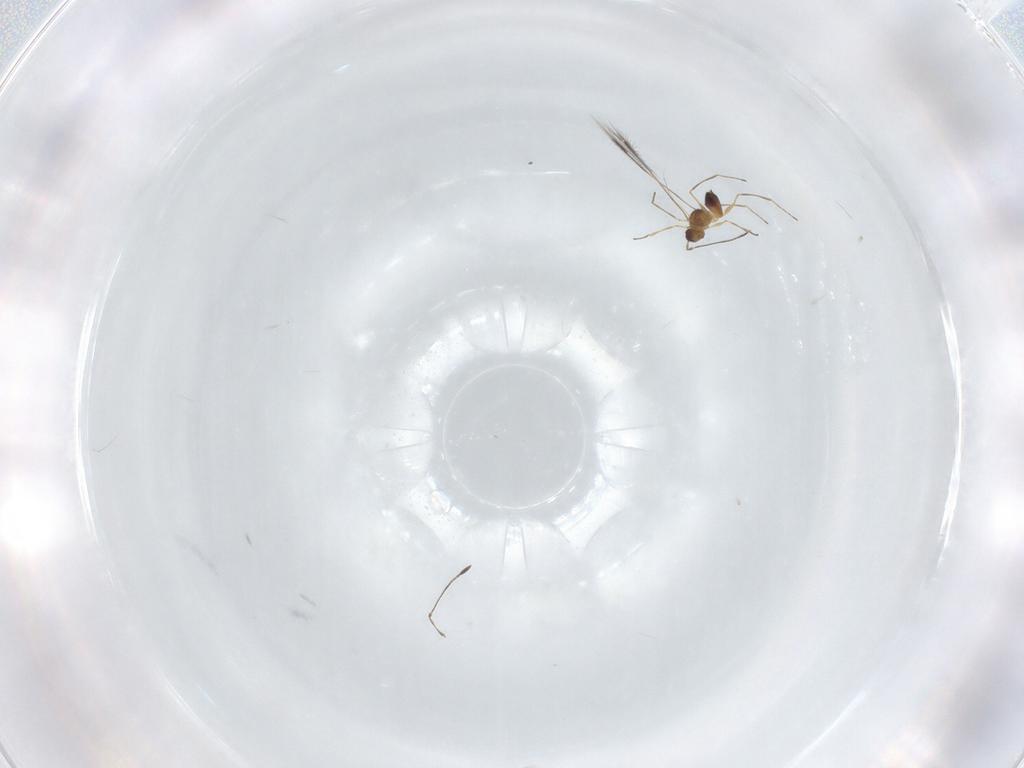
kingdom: Animalia
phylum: Arthropoda
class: Insecta
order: Hymenoptera
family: Mymaridae
